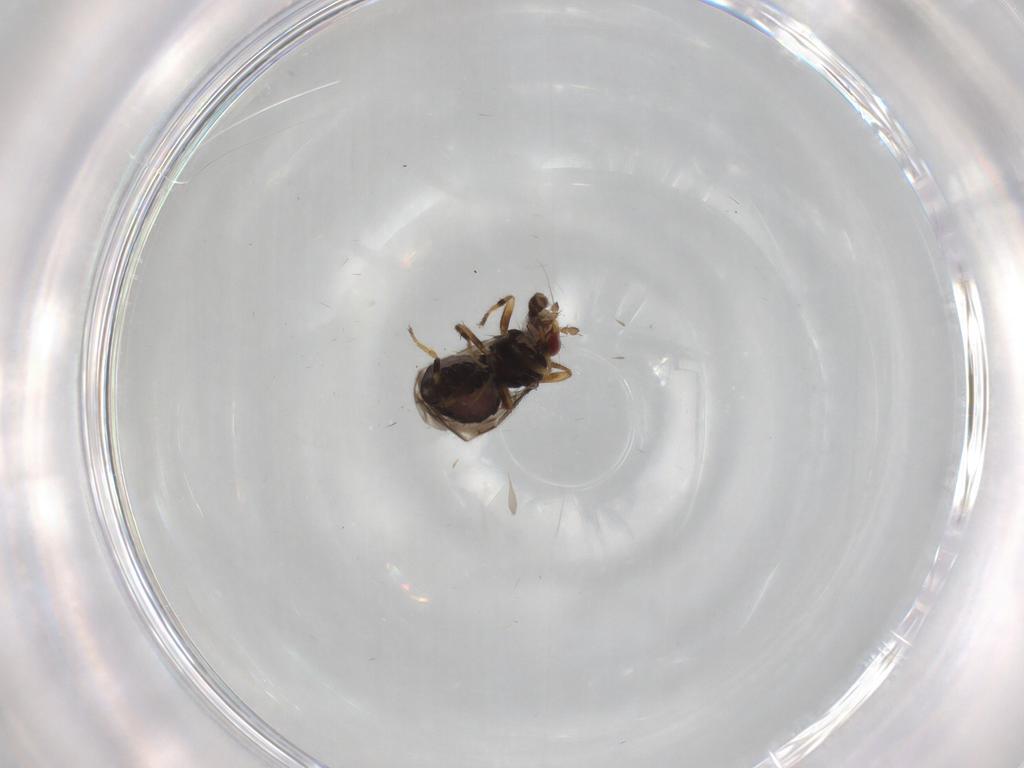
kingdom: Animalia
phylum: Arthropoda
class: Insecta
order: Diptera
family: Sphaeroceridae
